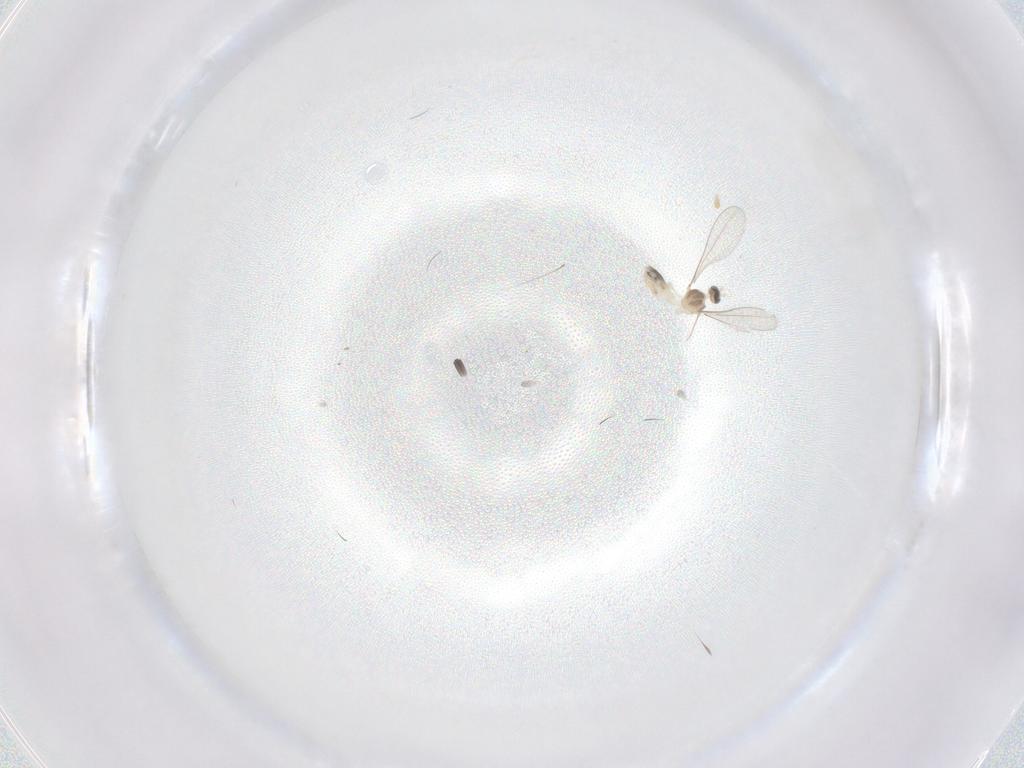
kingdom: Animalia
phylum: Arthropoda
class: Insecta
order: Diptera
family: Cecidomyiidae
